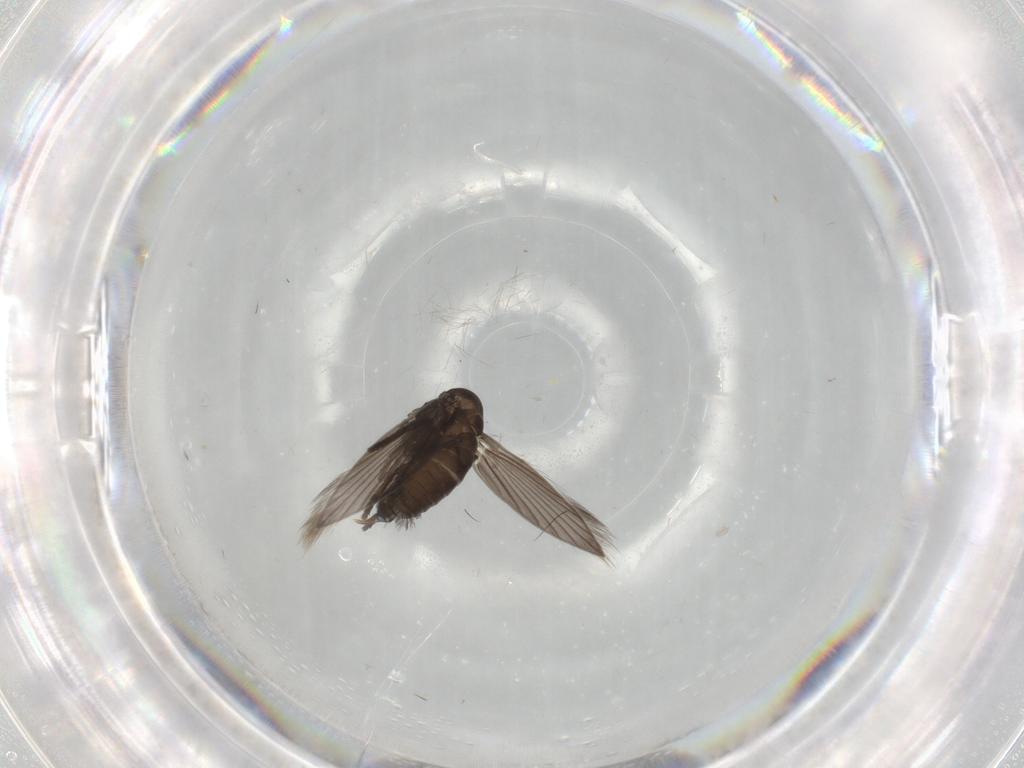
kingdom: Animalia
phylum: Arthropoda
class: Insecta
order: Diptera
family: Psychodidae
